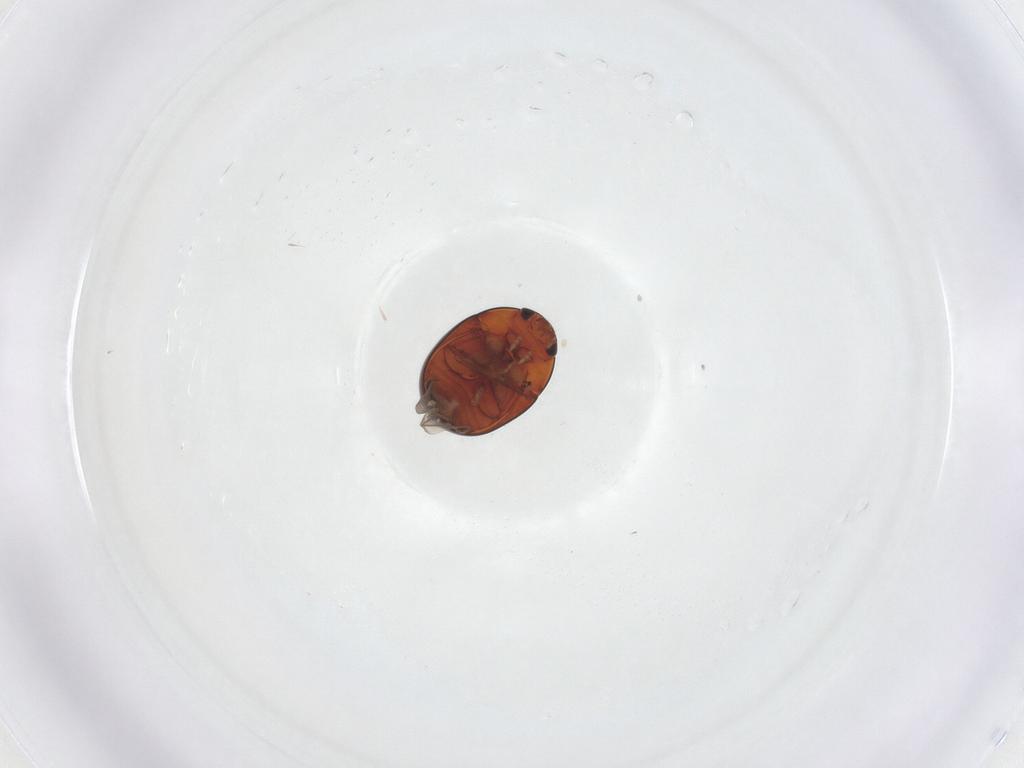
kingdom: Animalia
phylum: Arthropoda
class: Insecta
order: Coleoptera
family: Phalacridae
